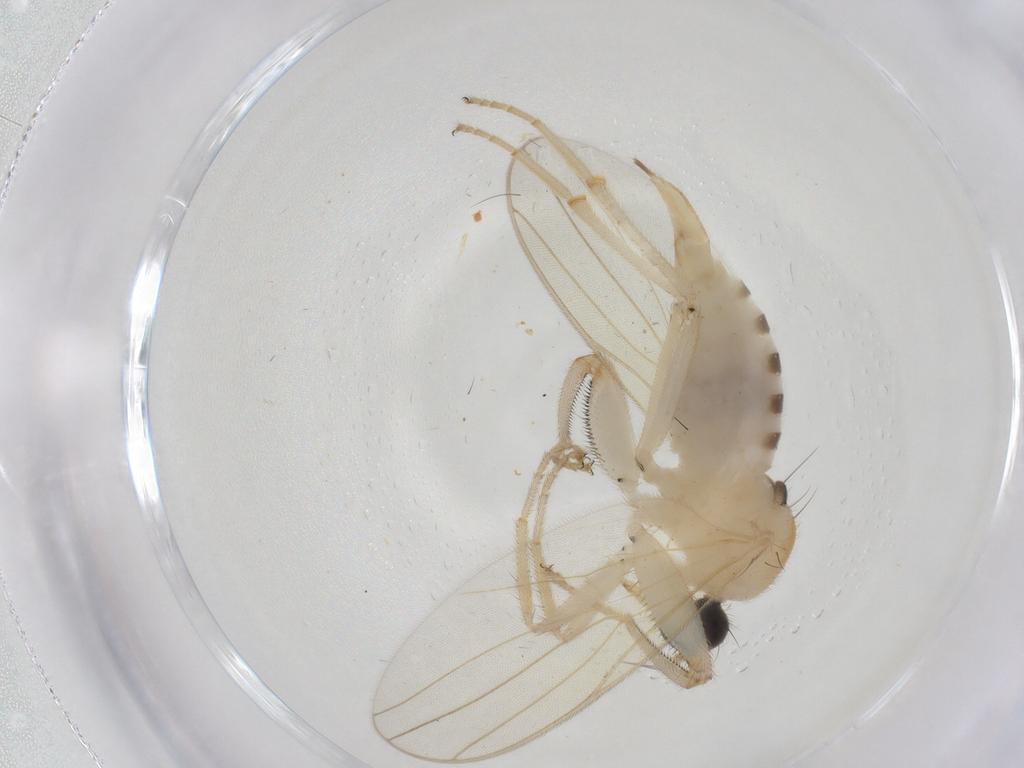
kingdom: Animalia
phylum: Arthropoda
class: Insecta
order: Diptera
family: Hybotidae
